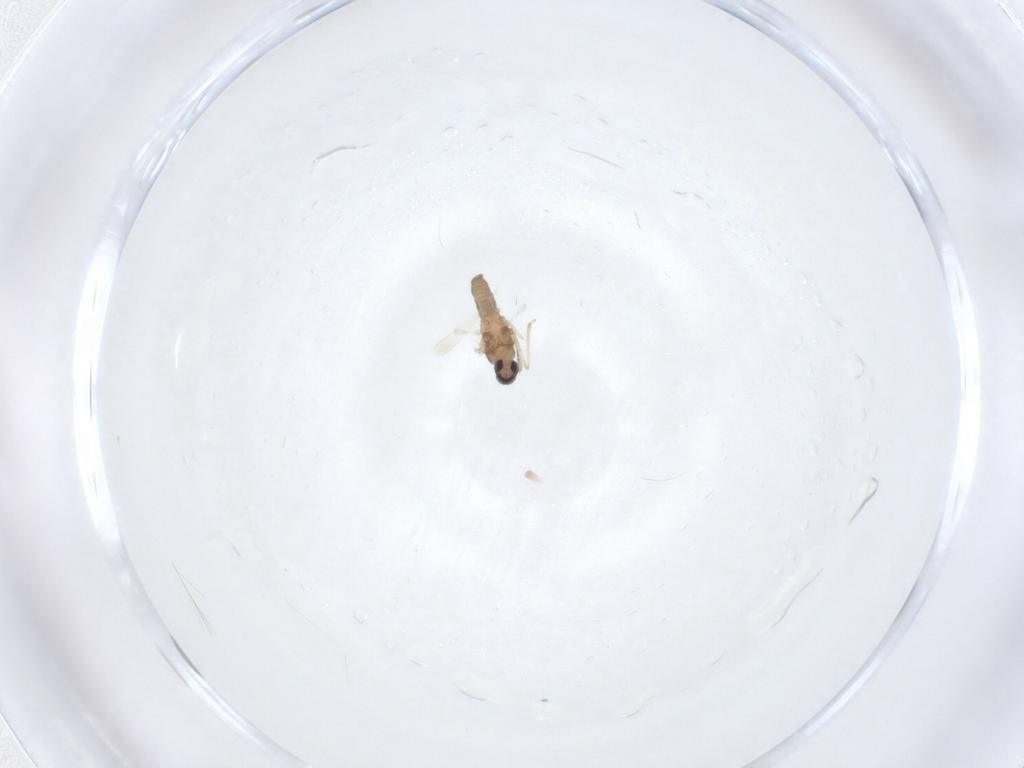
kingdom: Animalia
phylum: Arthropoda
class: Insecta
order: Diptera
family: Cecidomyiidae
